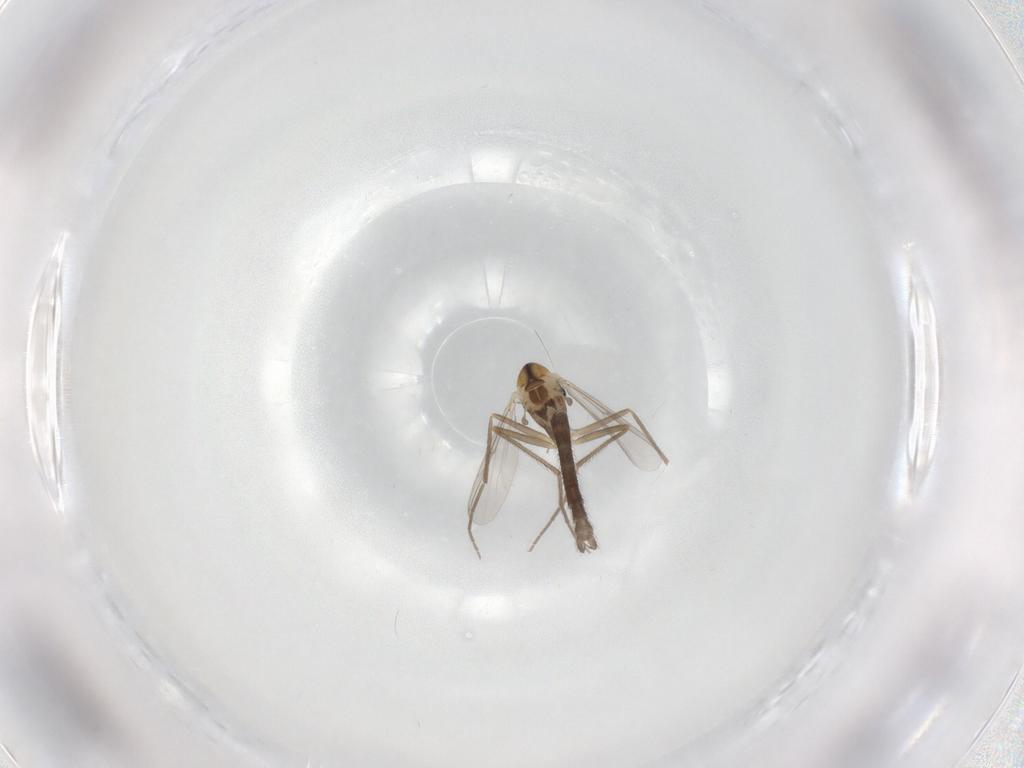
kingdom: Animalia
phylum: Arthropoda
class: Insecta
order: Diptera
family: Chironomidae
